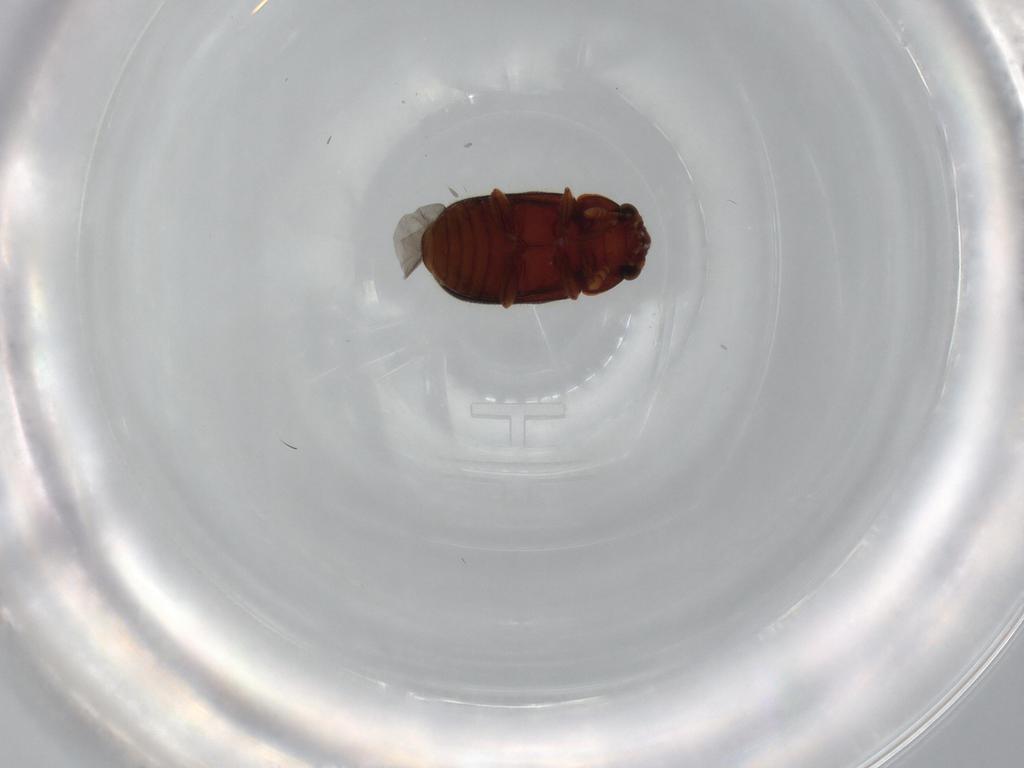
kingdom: Animalia
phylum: Arthropoda
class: Insecta
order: Coleoptera
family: Sphindidae
